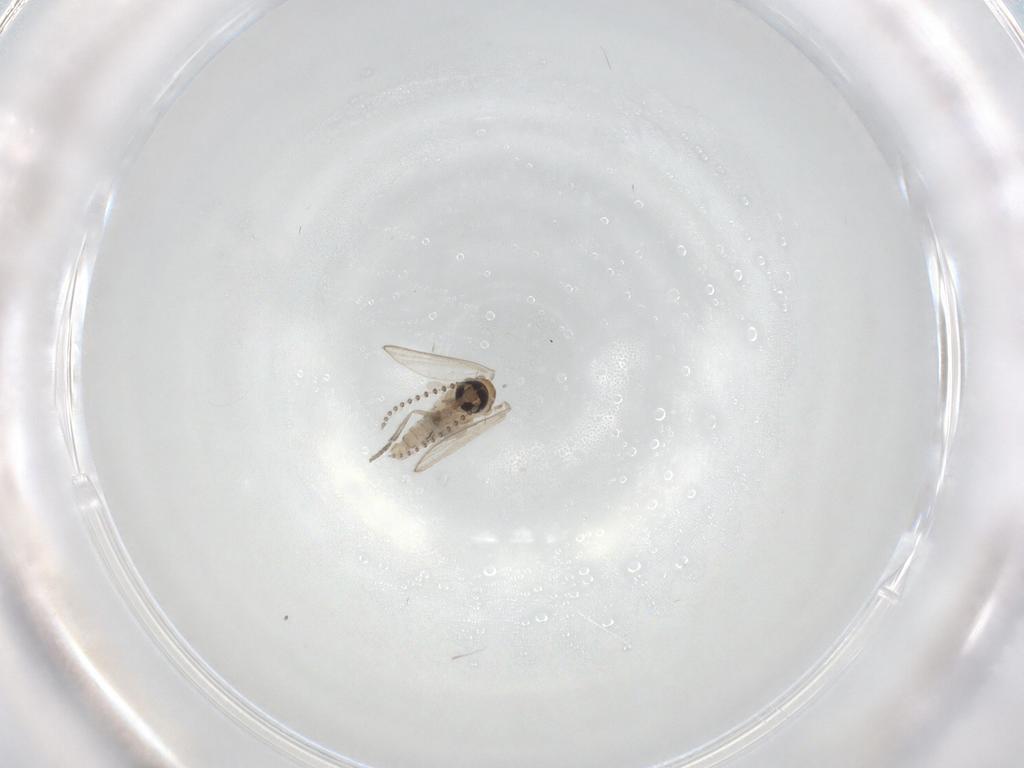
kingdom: Animalia
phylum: Arthropoda
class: Insecta
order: Diptera
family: Psychodidae
